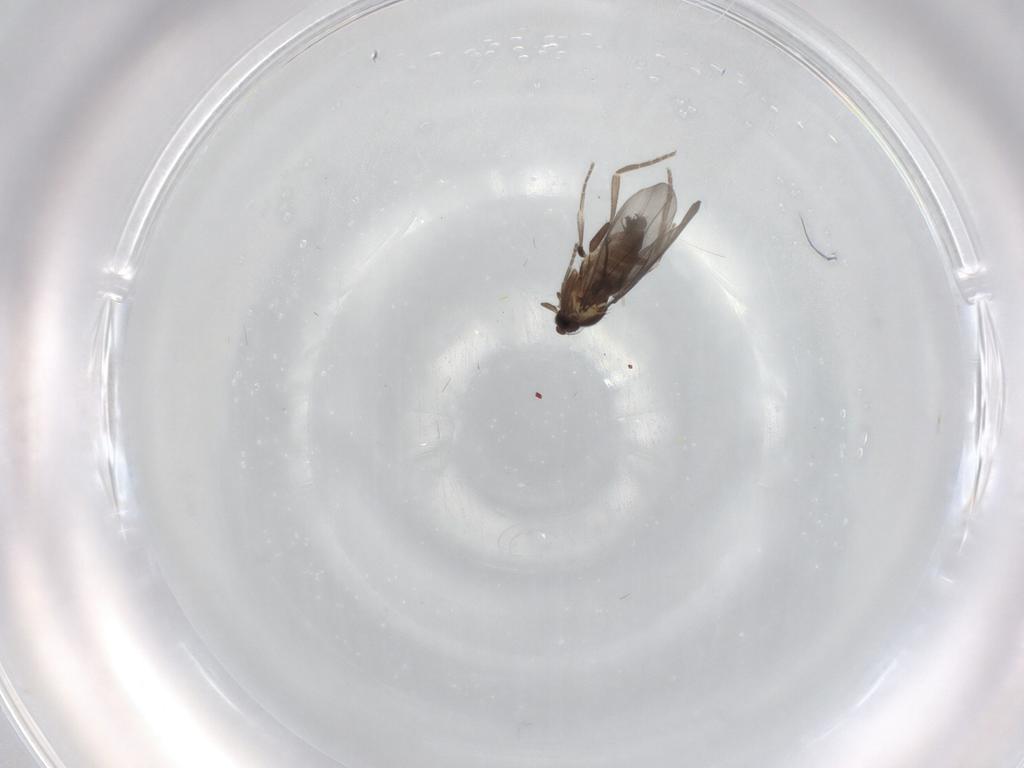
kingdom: Animalia
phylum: Arthropoda
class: Insecta
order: Diptera
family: Phoridae
